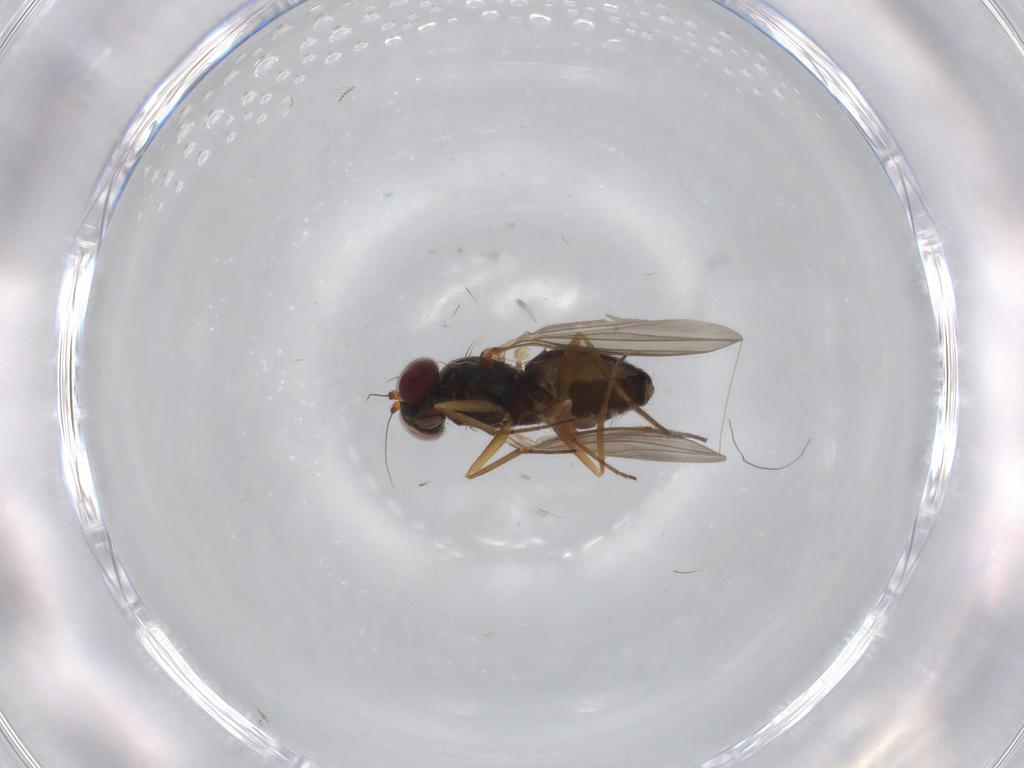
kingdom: Animalia
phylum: Arthropoda
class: Insecta
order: Diptera
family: Dolichopodidae
